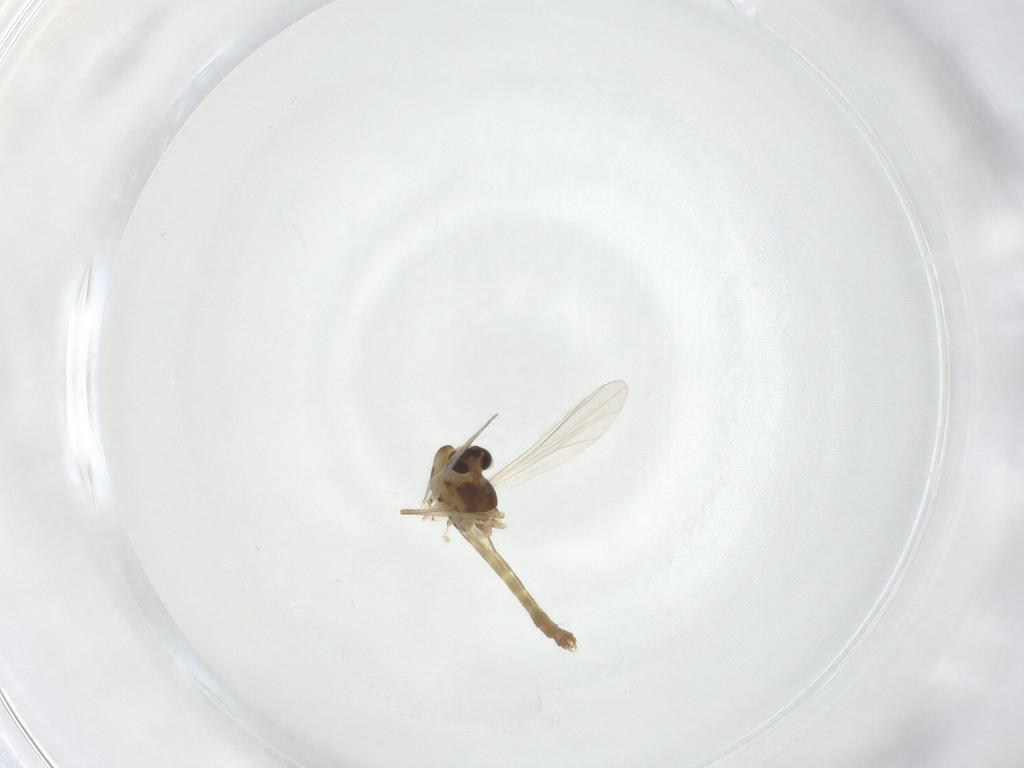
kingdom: Animalia
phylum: Arthropoda
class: Insecta
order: Diptera
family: Chironomidae
